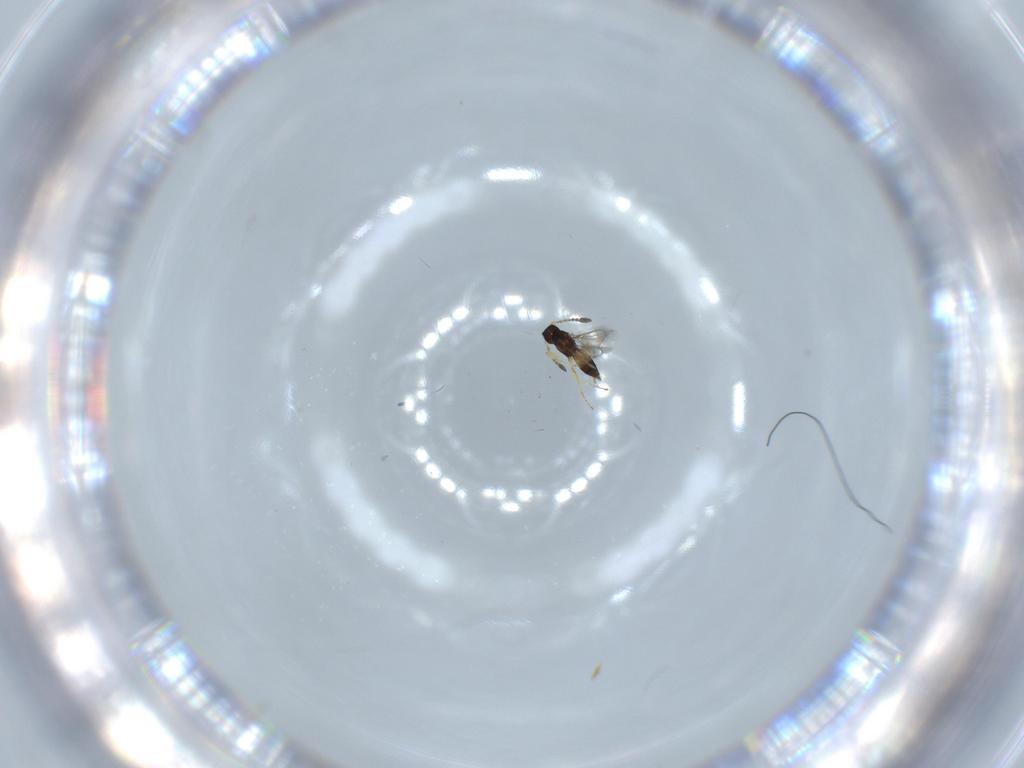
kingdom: Animalia
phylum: Arthropoda
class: Insecta
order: Hymenoptera
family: Mymaridae
